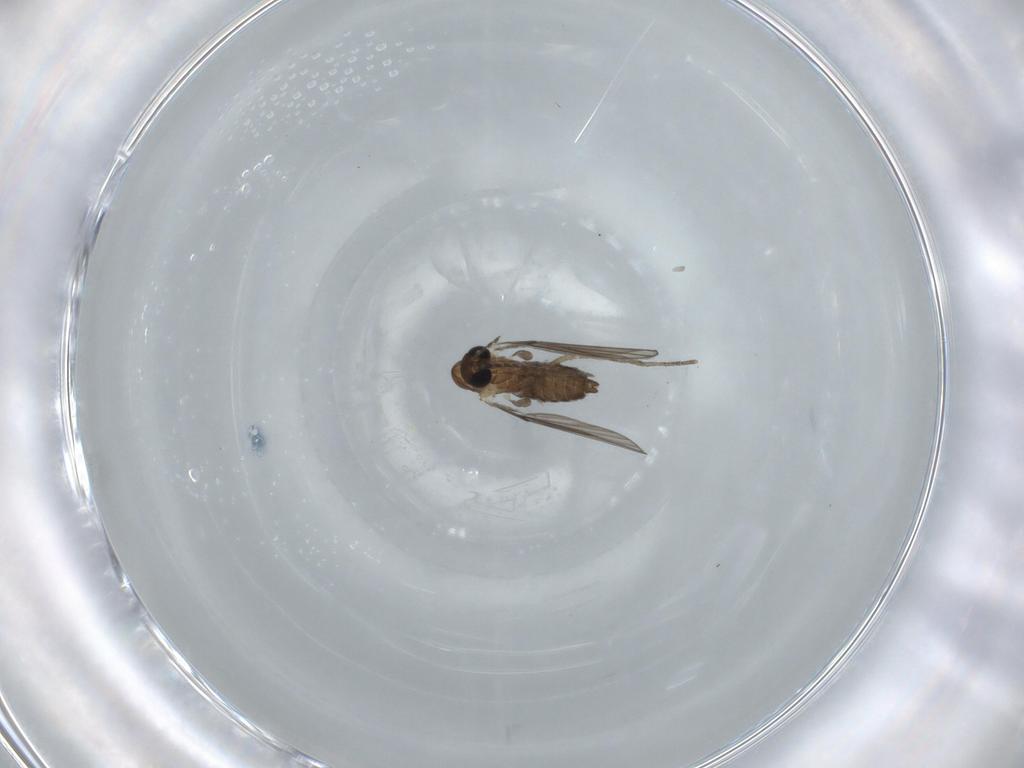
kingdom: Animalia
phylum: Arthropoda
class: Insecta
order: Diptera
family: Psychodidae
